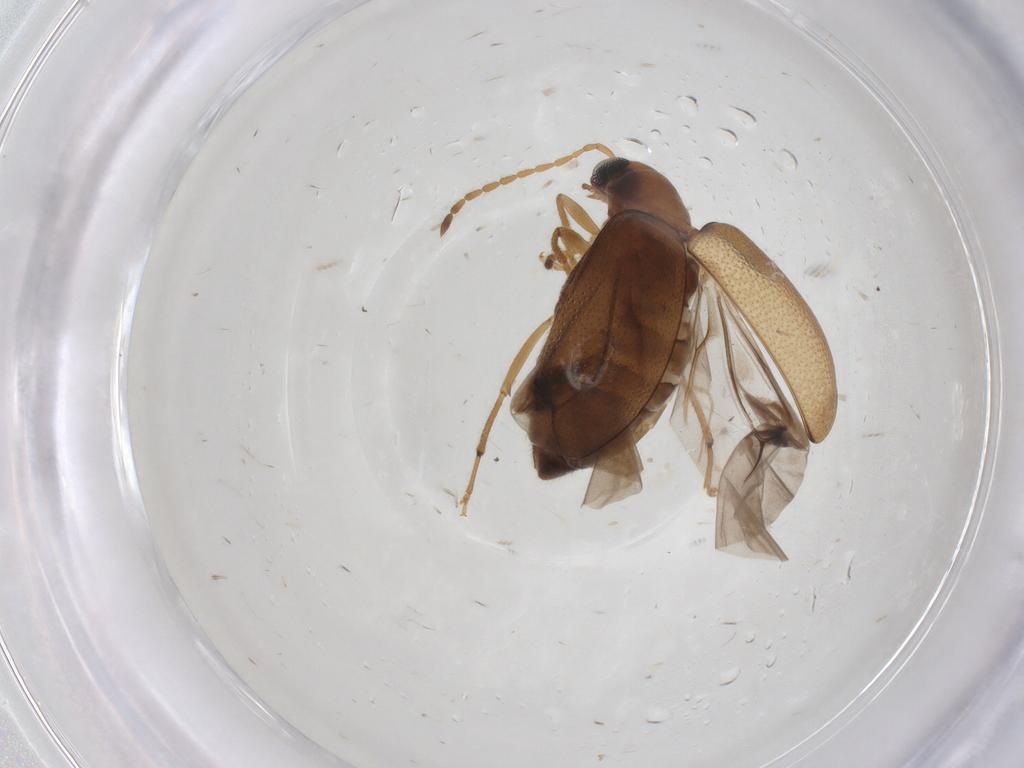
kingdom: Animalia
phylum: Arthropoda
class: Insecta
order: Coleoptera
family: Chrysomelidae
